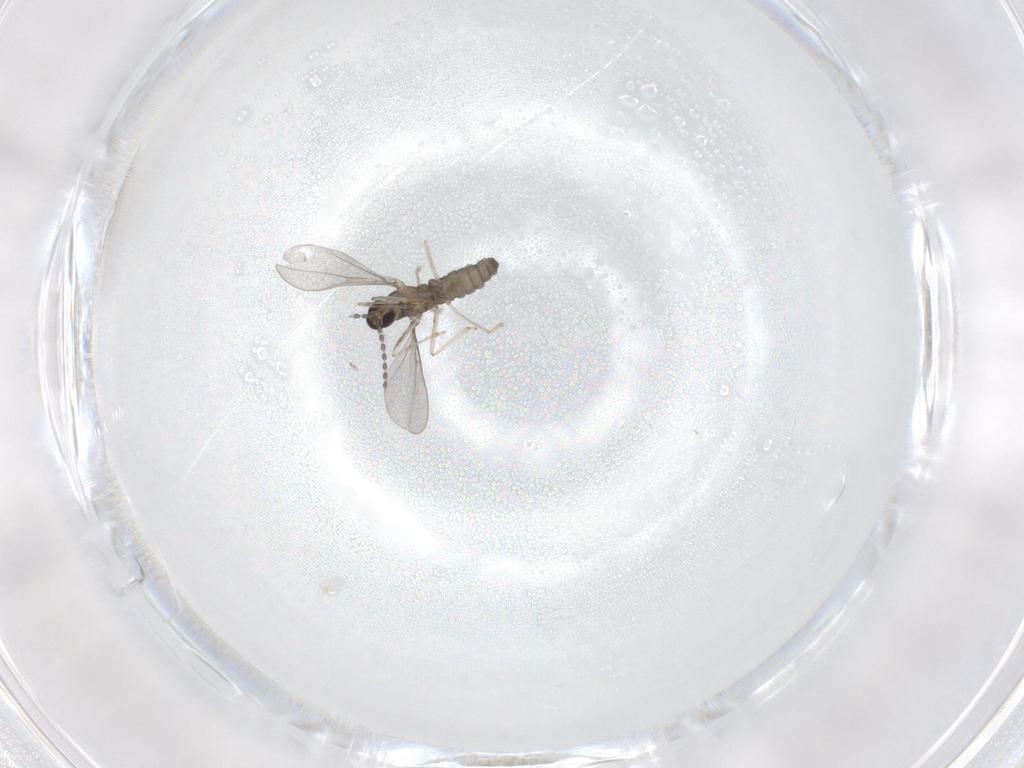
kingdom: Animalia
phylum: Arthropoda
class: Insecta
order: Diptera
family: Cecidomyiidae
